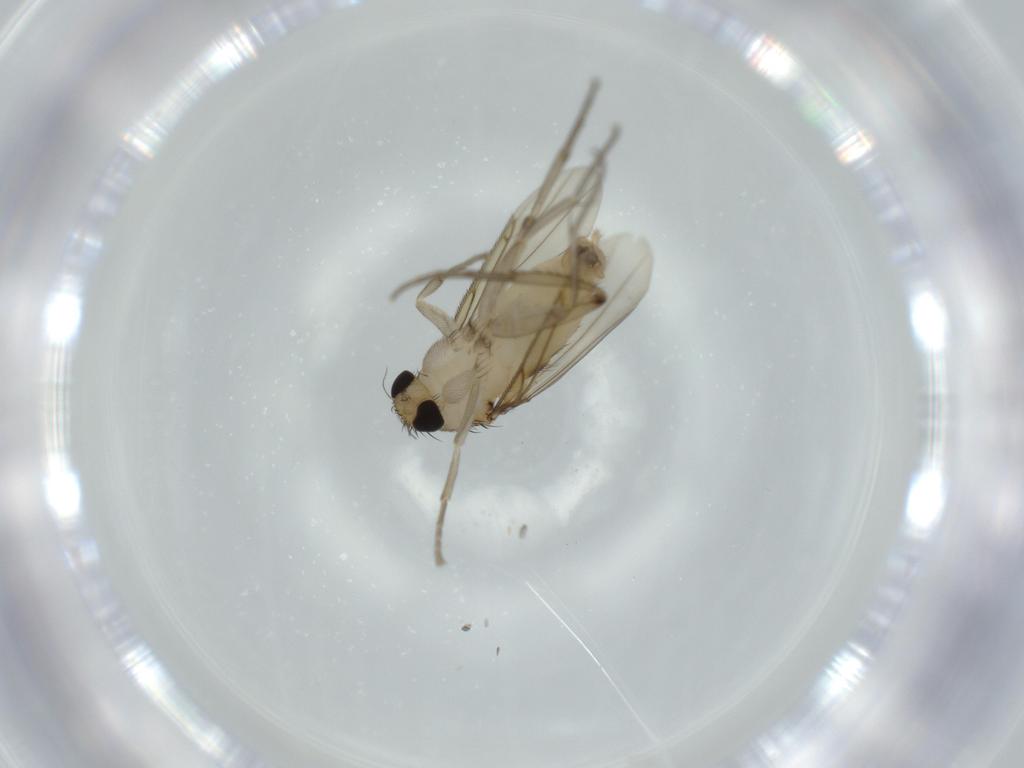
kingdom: Animalia
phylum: Arthropoda
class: Insecta
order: Diptera
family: Phoridae
